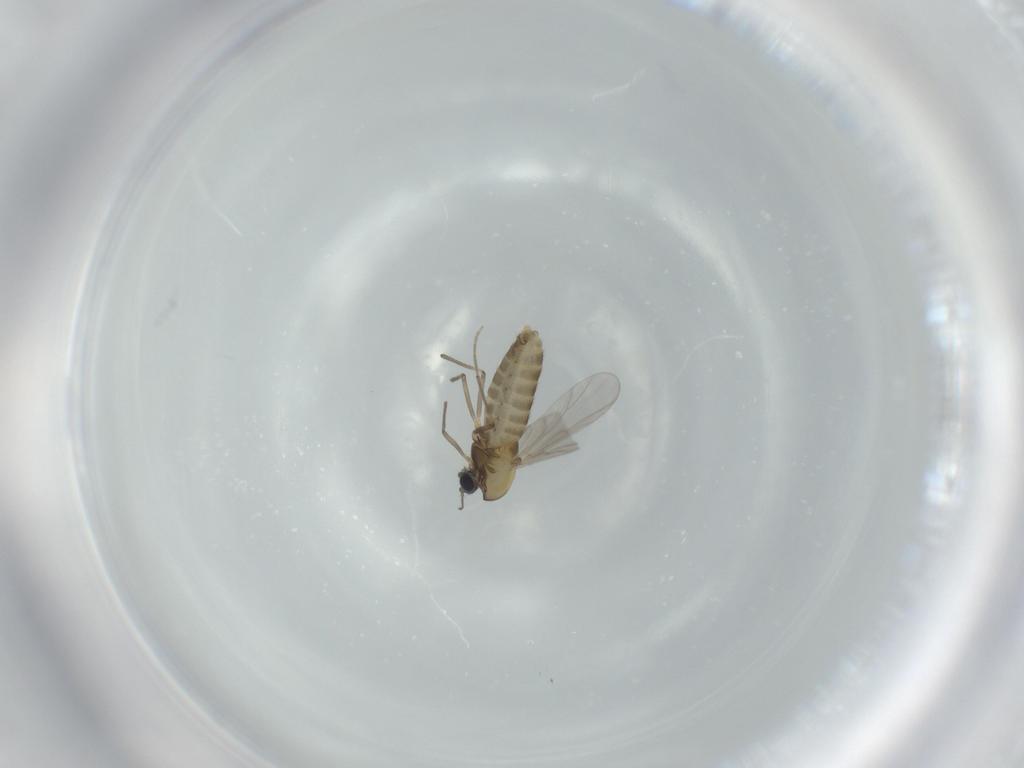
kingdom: Animalia
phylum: Arthropoda
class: Insecta
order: Diptera
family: Chironomidae
